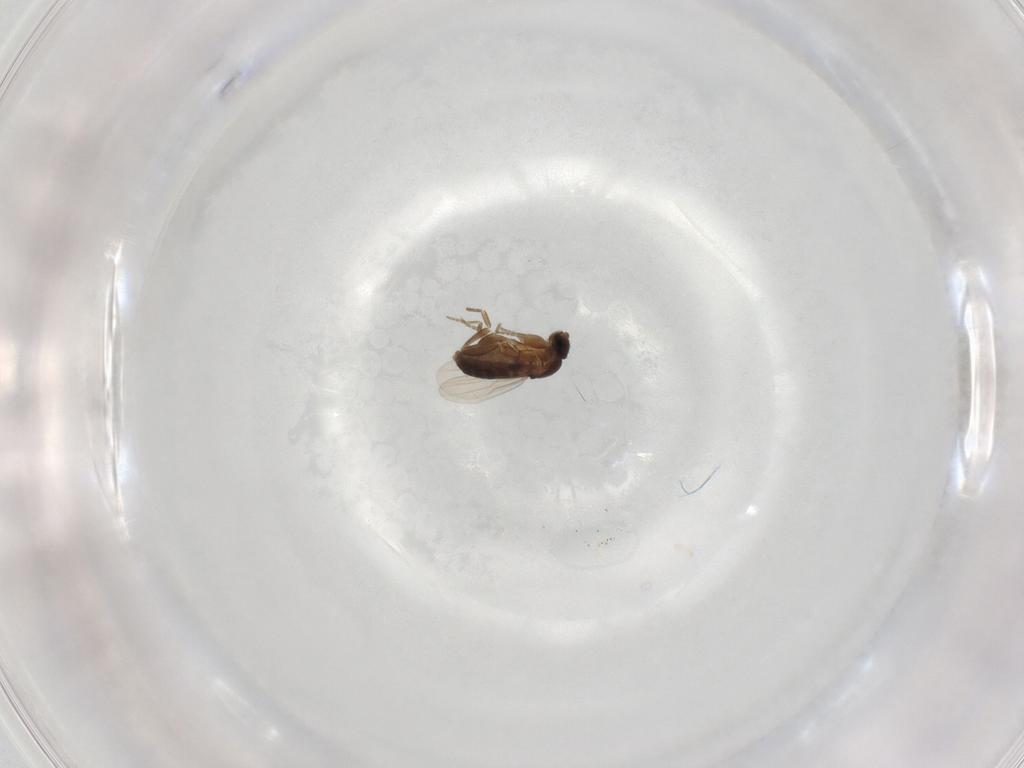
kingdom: Animalia
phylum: Arthropoda
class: Insecta
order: Diptera
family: Phoridae
